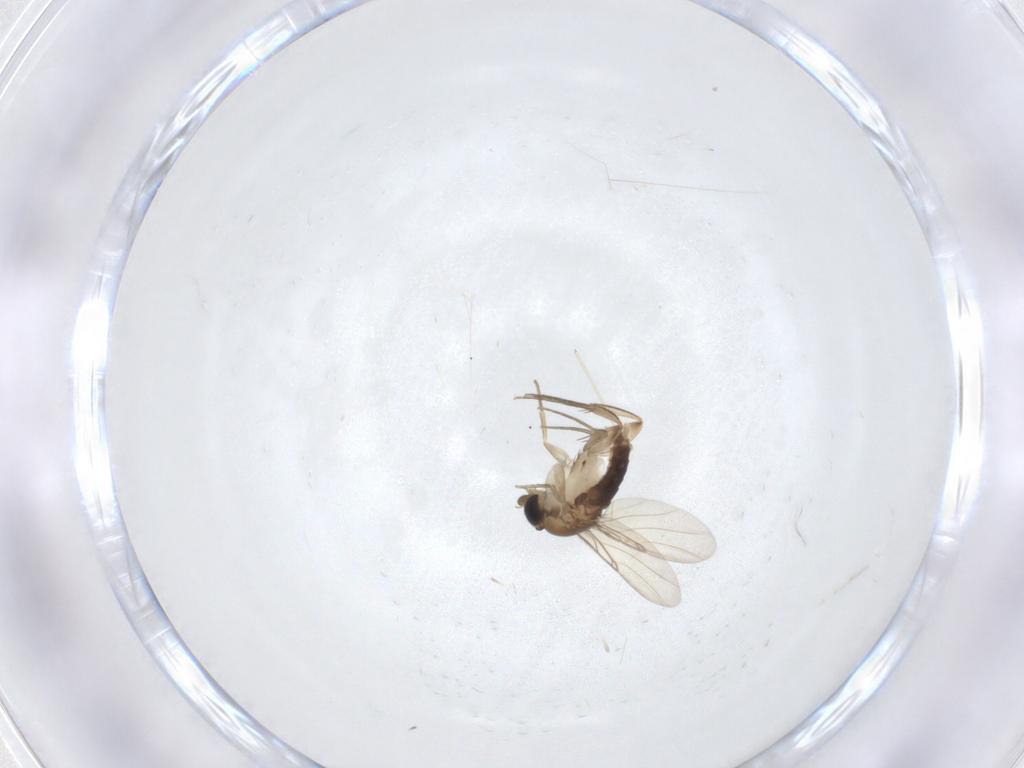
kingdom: Animalia
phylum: Arthropoda
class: Insecta
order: Diptera
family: Phoridae
